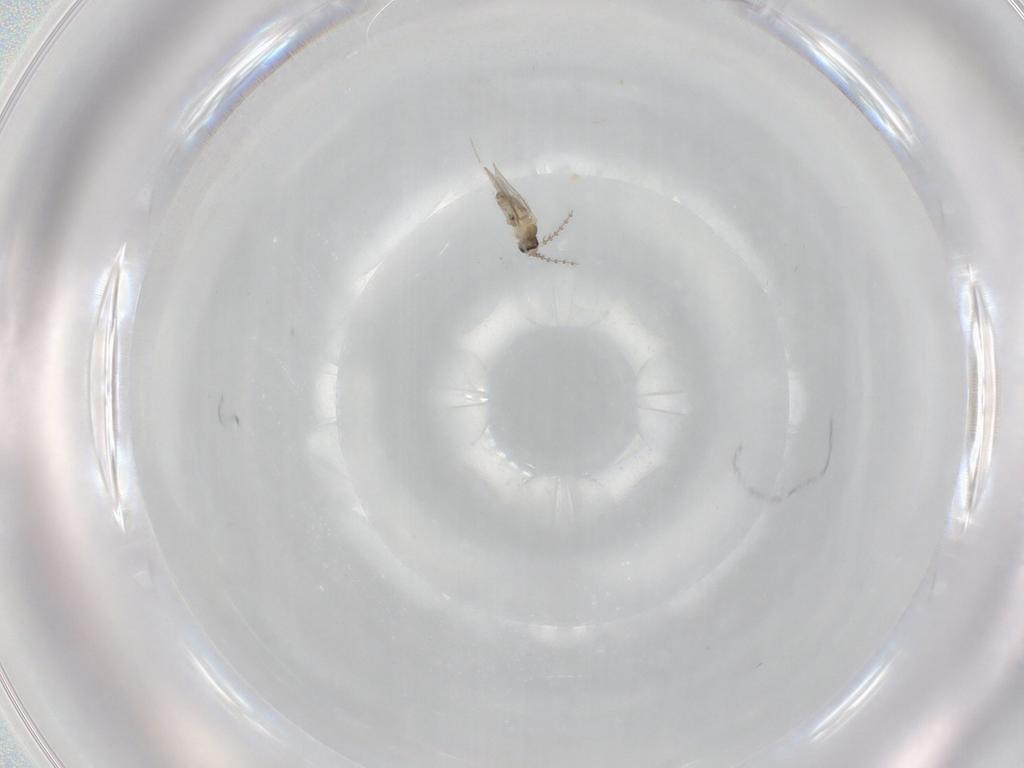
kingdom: Animalia
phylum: Arthropoda
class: Insecta
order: Diptera
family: Cecidomyiidae
